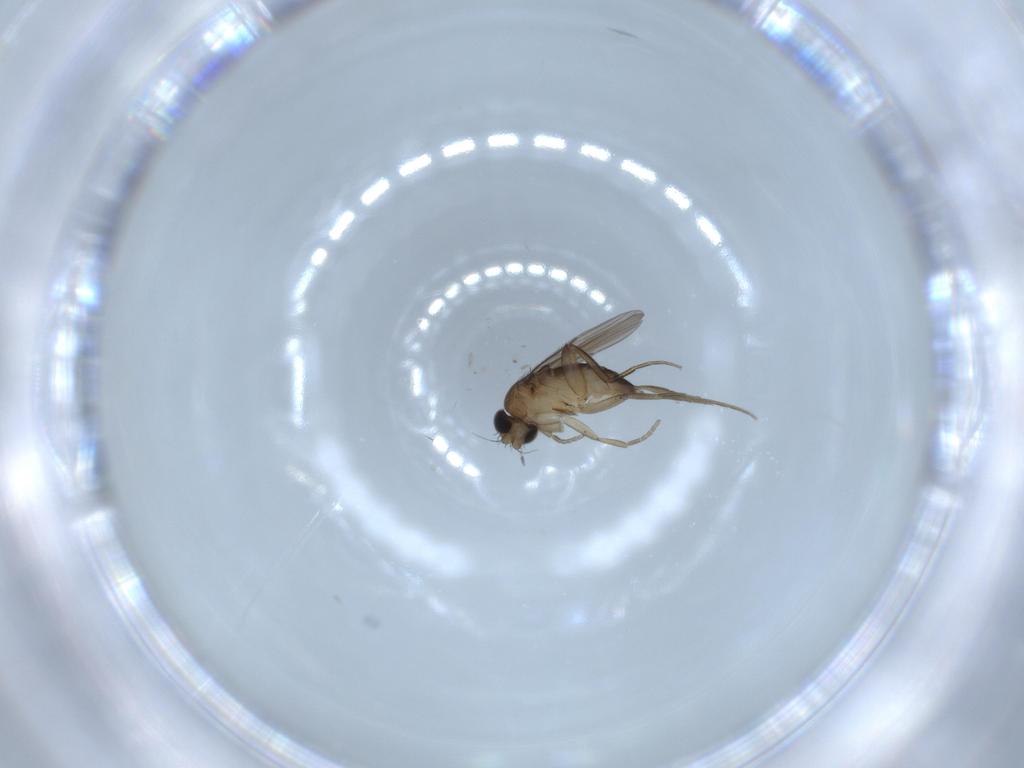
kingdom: Animalia
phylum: Arthropoda
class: Insecta
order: Diptera
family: Phoridae
